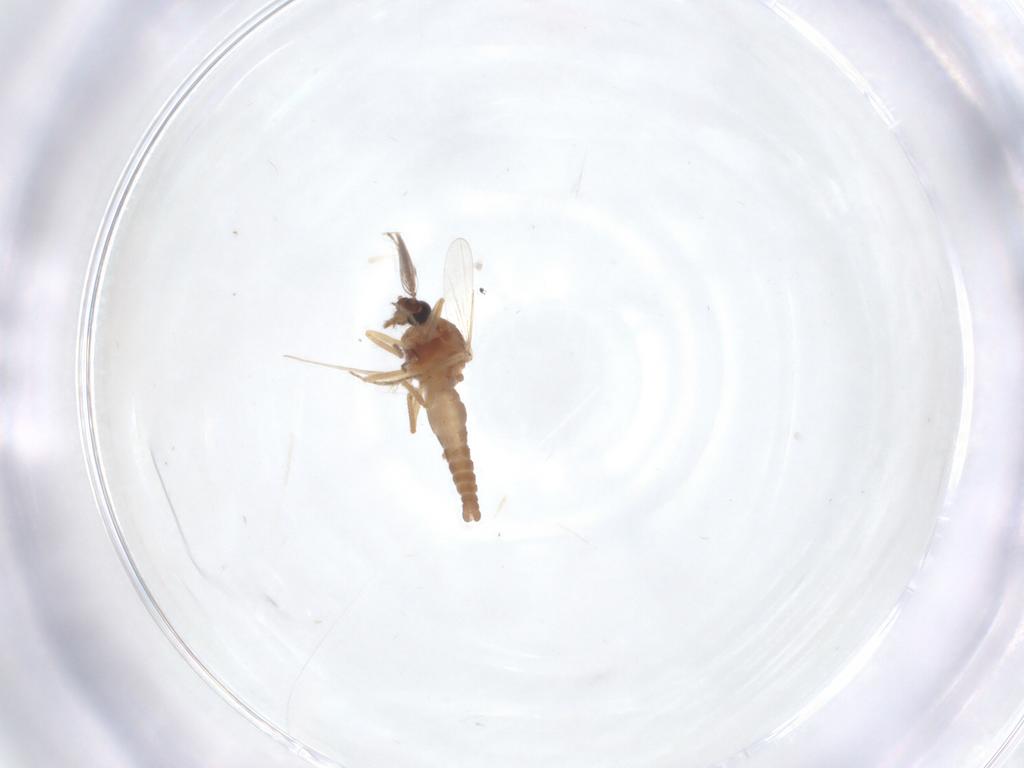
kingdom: Animalia
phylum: Arthropoda
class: Insecta
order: Diptera
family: Ceratopogonidae
